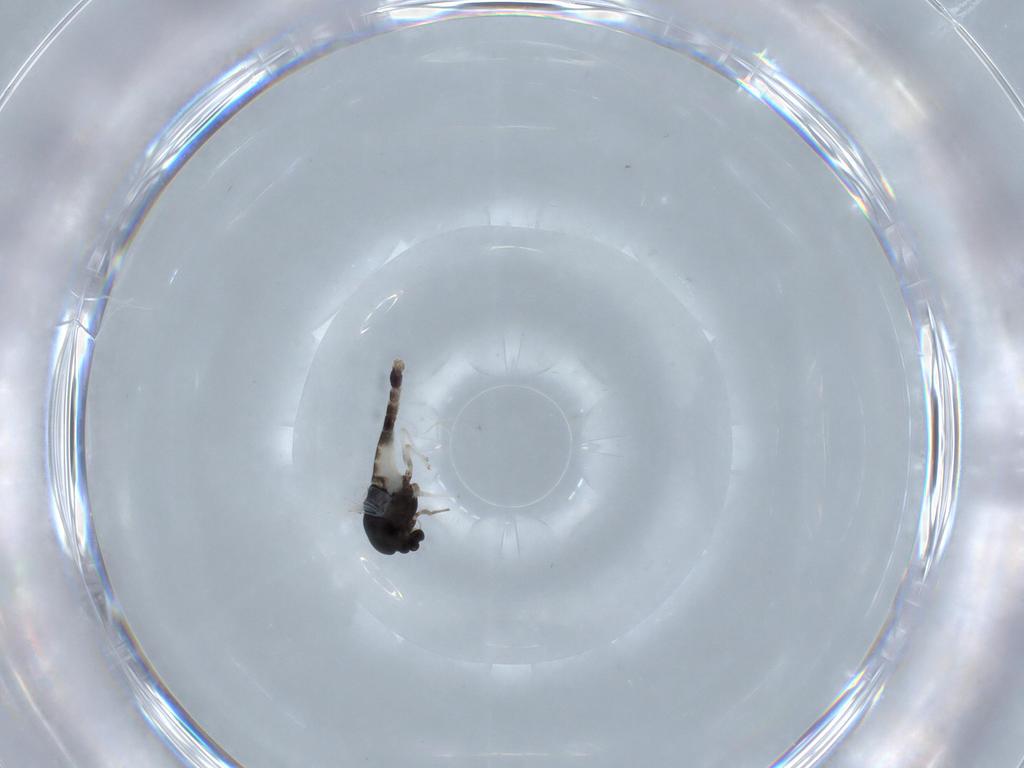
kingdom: Animalia
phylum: Arthropoda
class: Insecta
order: Diptera
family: Chironomidae
